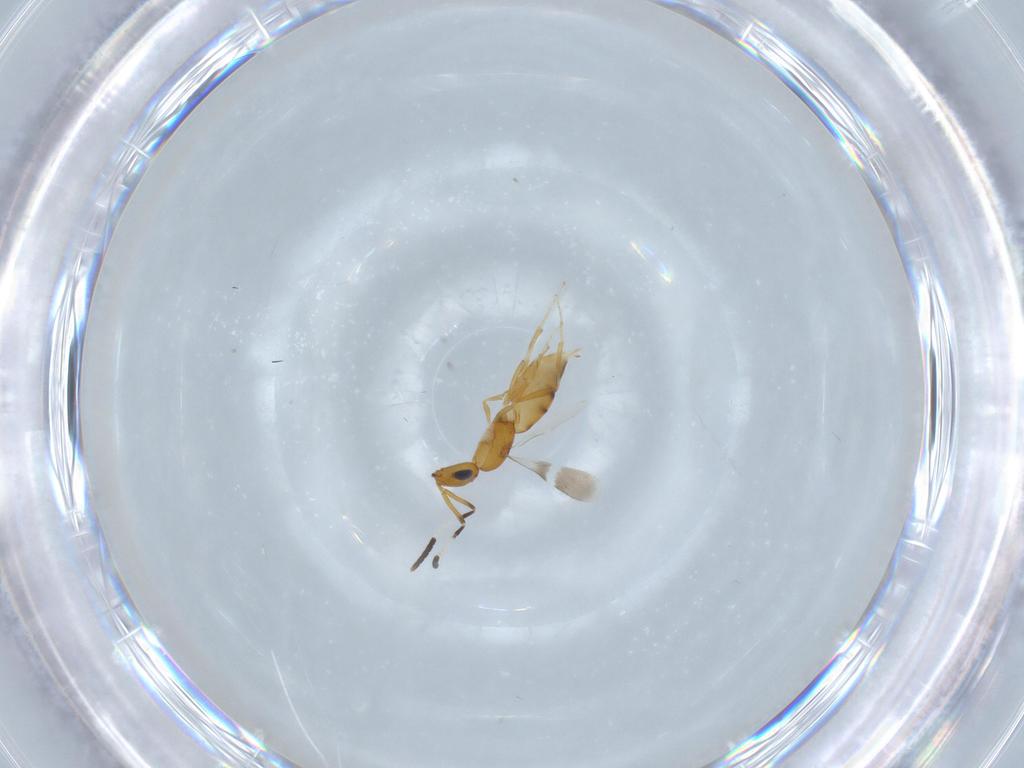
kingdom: Animalia
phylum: Arthropoda
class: Insecta
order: Hymenoptera
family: Scelionidae
